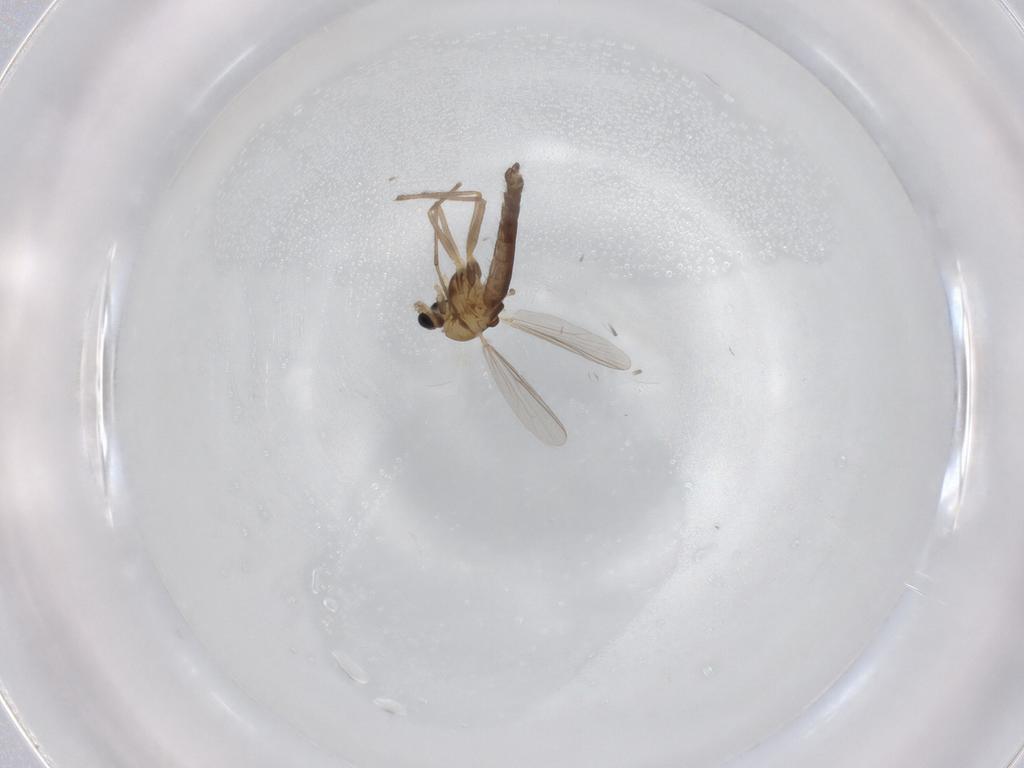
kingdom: Animalia
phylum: Arthropoda
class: Insecta
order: Diptera
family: Chironomidae
